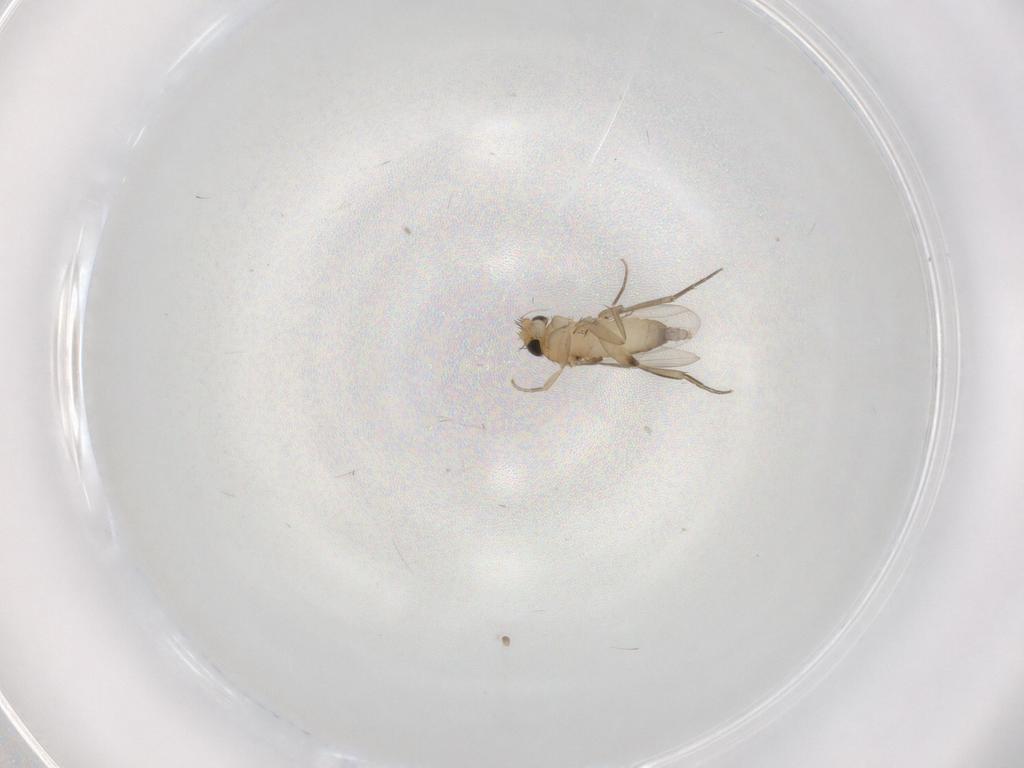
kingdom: Animalia
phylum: Arthropoda
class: Insecta
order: Diptera
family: Phoridae
